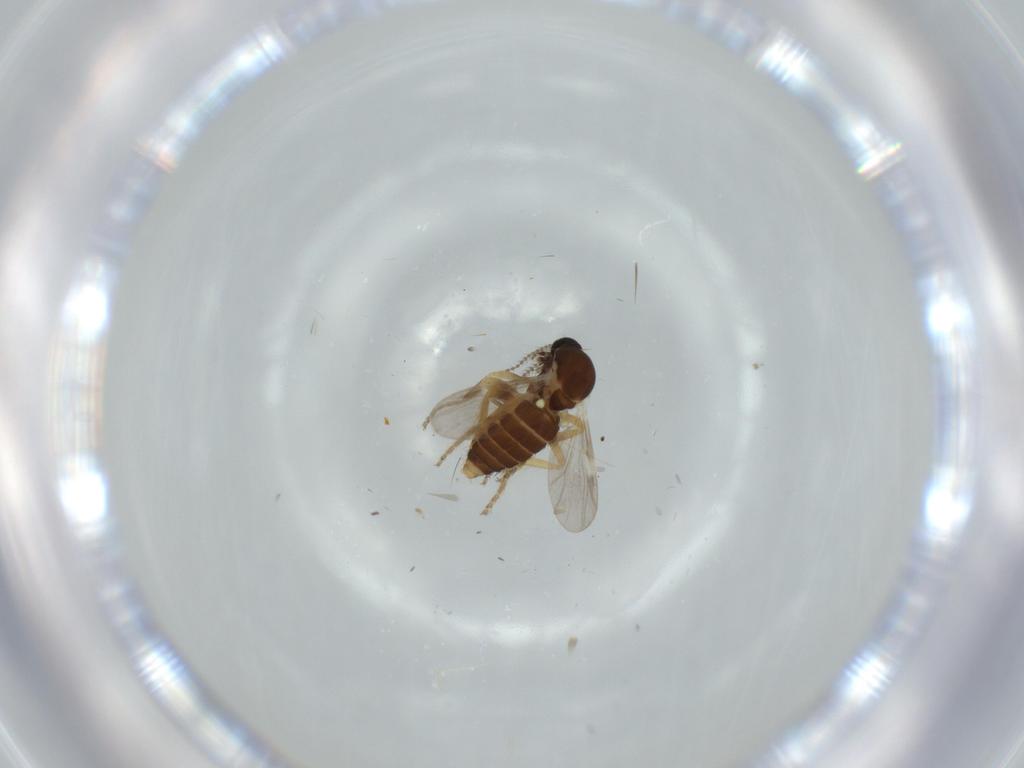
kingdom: Animalia
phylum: Arthropoda
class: Insecta
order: Diptera
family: Ceratopogonidae
